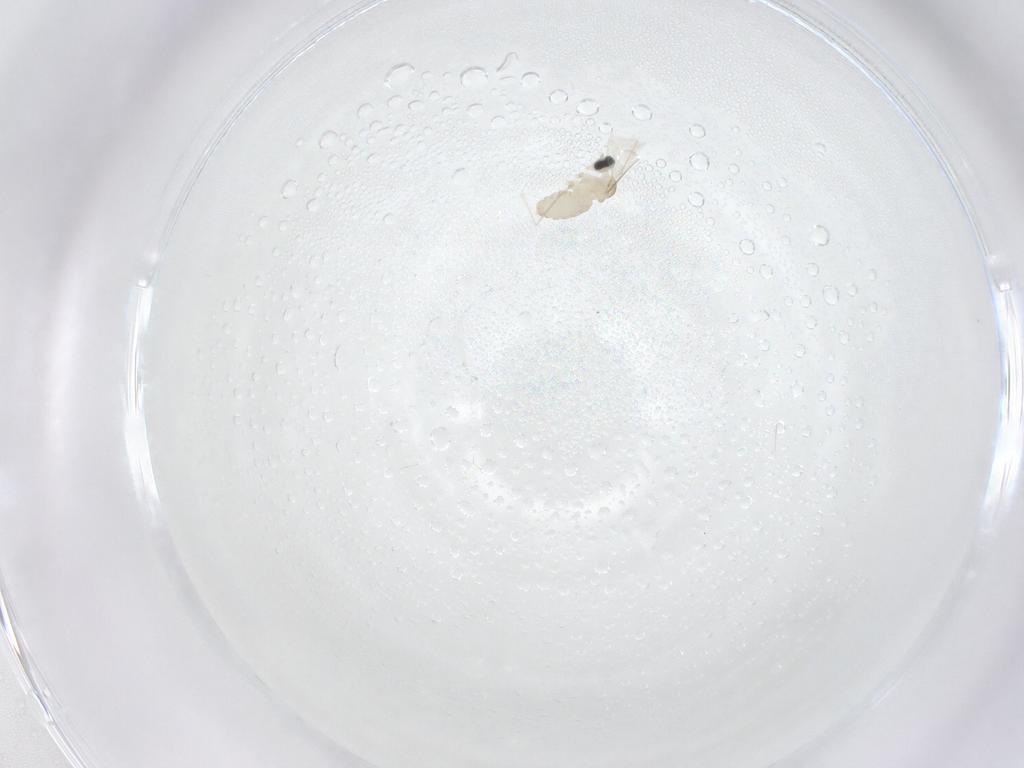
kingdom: Animalia
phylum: Arthropoda
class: Insecta
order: Diptera
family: Cecidomyiidae
